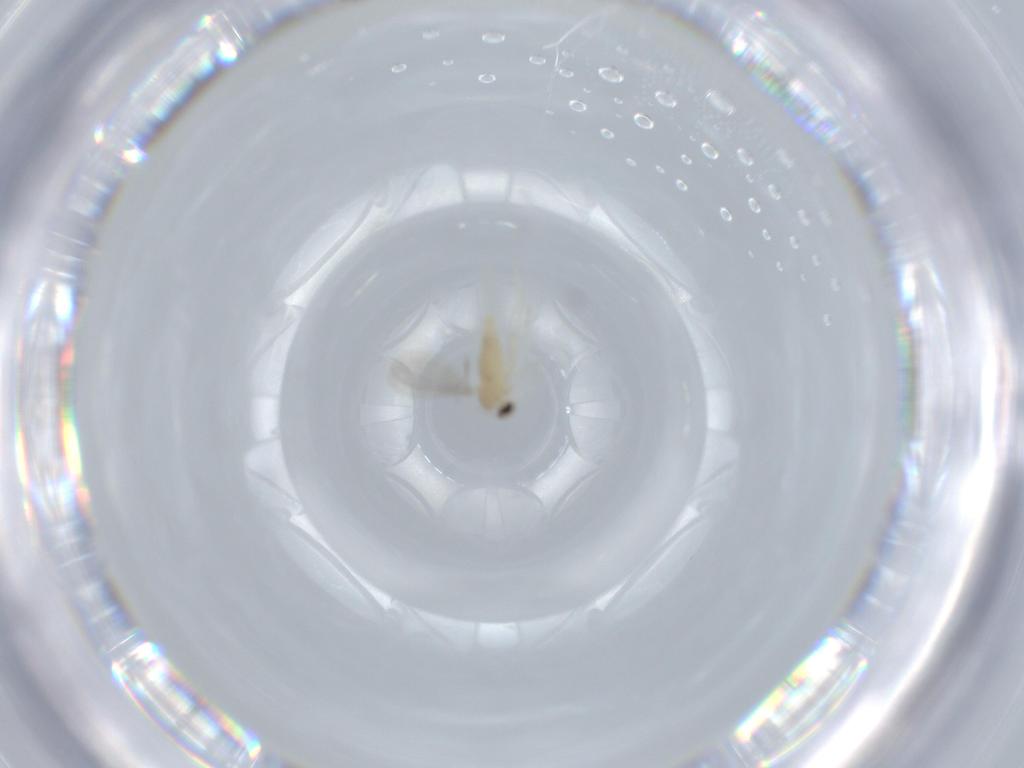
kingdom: Animalia
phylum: Arthropoda
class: Insecta
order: Diptera
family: Cecidomyiidae
